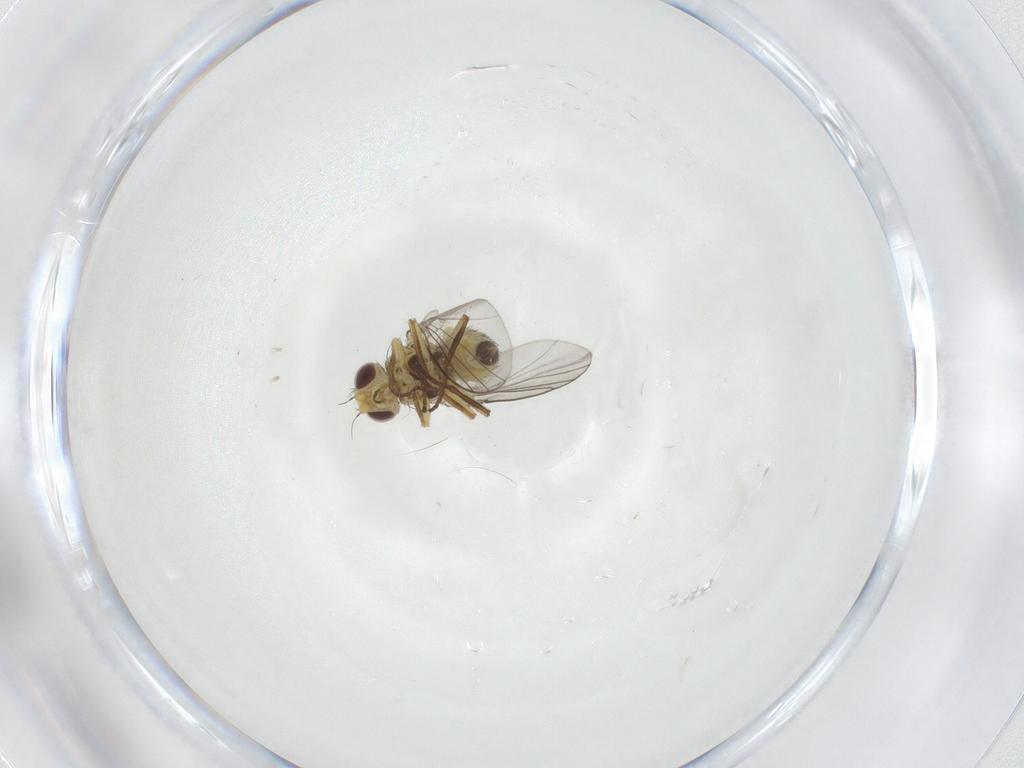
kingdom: Animalia
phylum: Arthropoda
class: Insecta
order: Diptera
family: Agromyzidae
